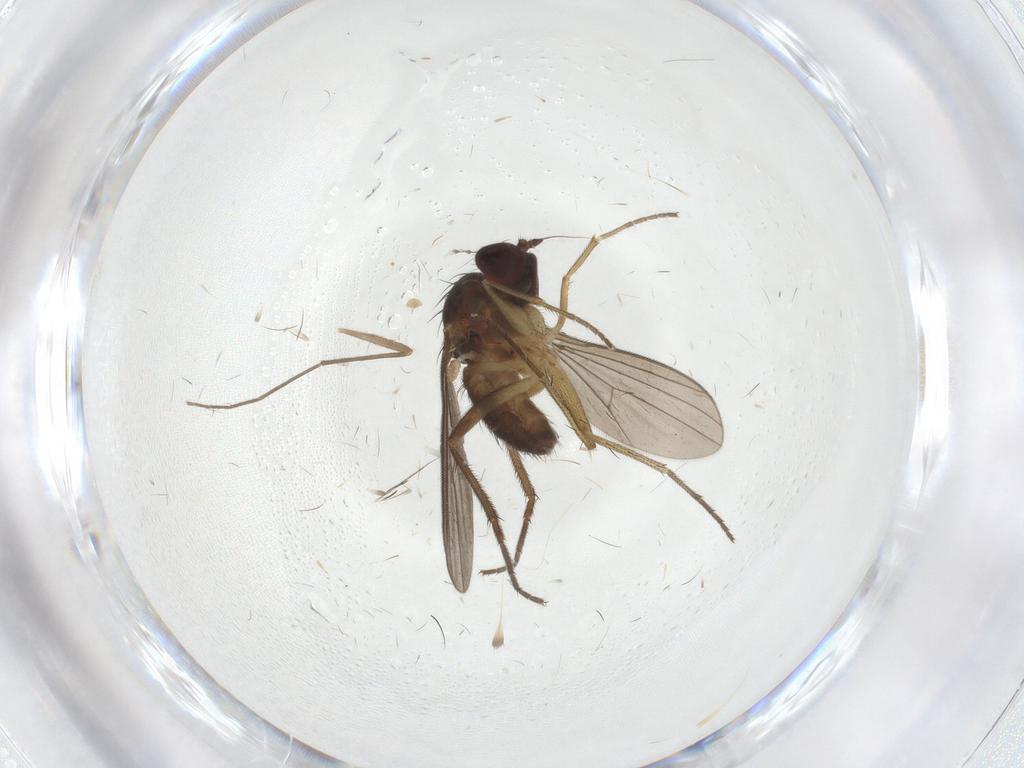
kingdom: Animalia
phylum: Arthropoda
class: Insecta
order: Diptera
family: Dolichopodidae
